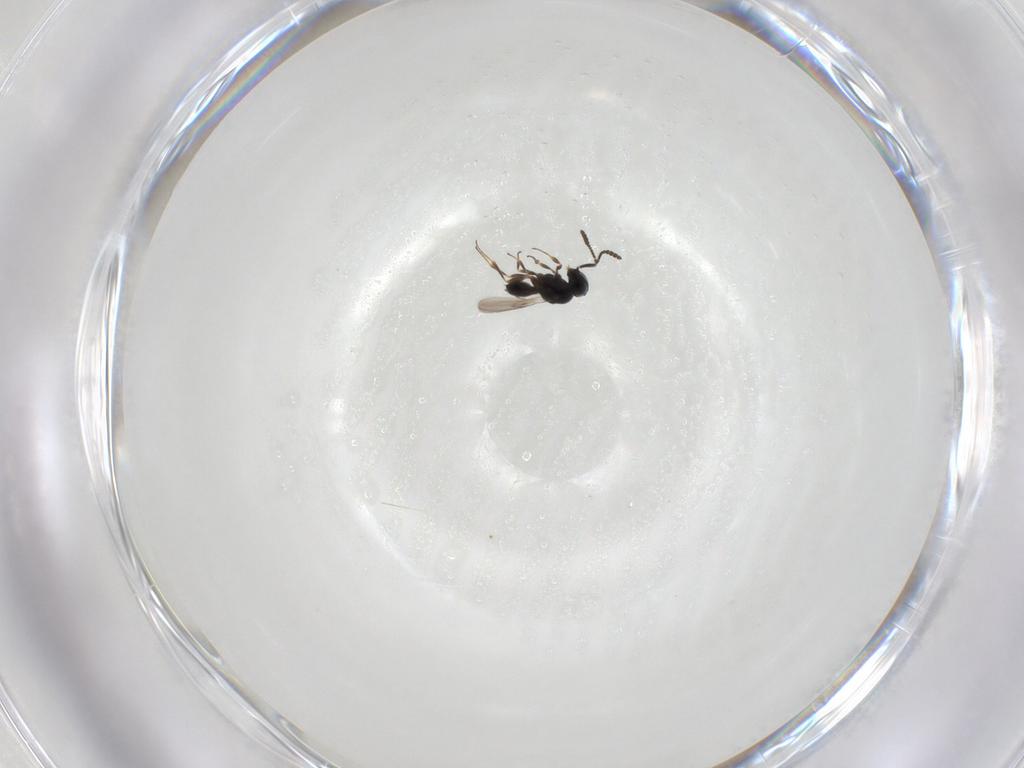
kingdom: Animalia
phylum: Arthropoda
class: Insecta
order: Hymenoptera
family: Scelionidae
